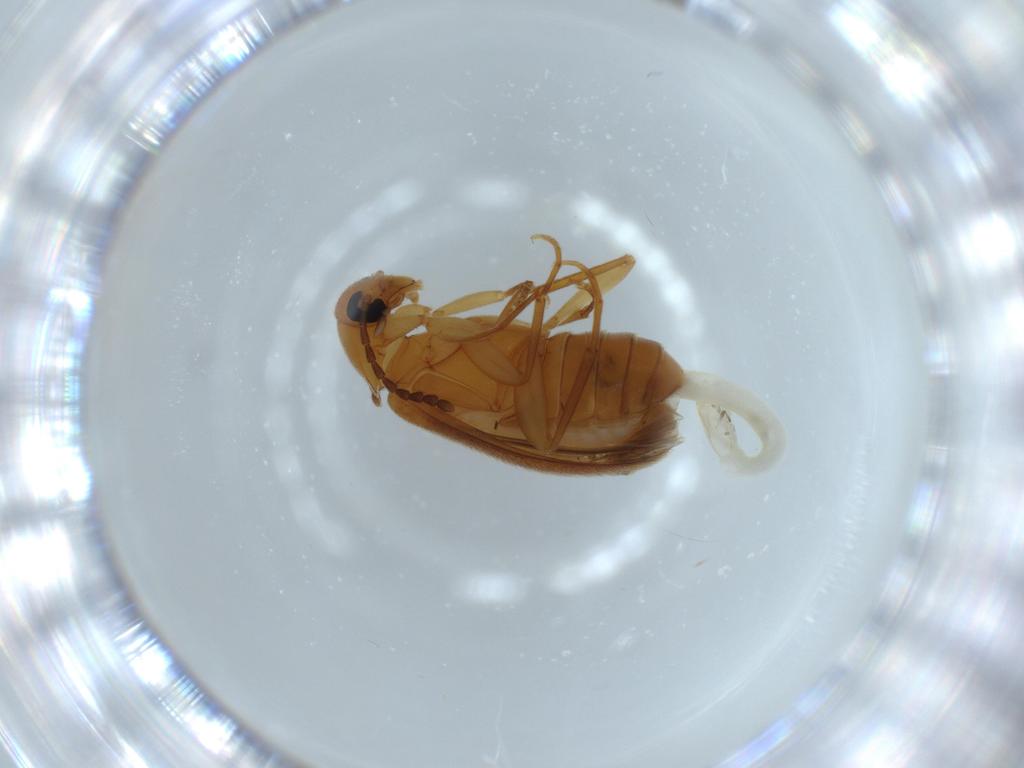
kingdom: Animalia
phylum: Arthropoda
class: Insecta
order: Coleoptera
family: Scraptiidae
